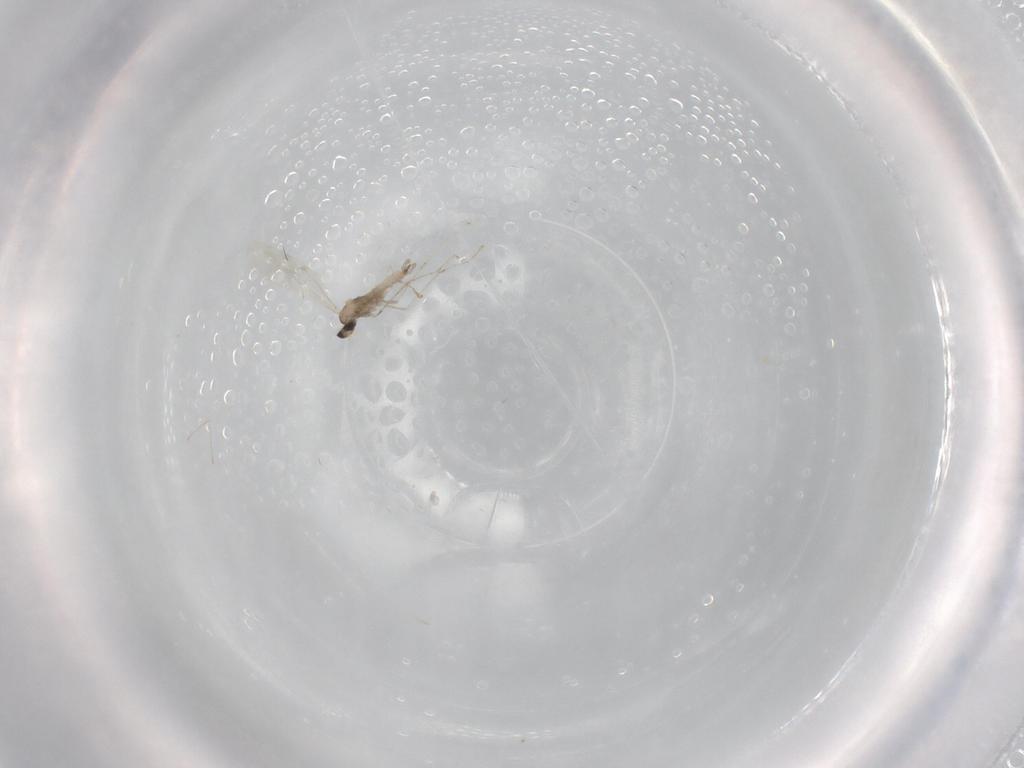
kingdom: Animalia
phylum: Arthropoda
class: Insecta
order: Diptera
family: Cecidomyiidae
